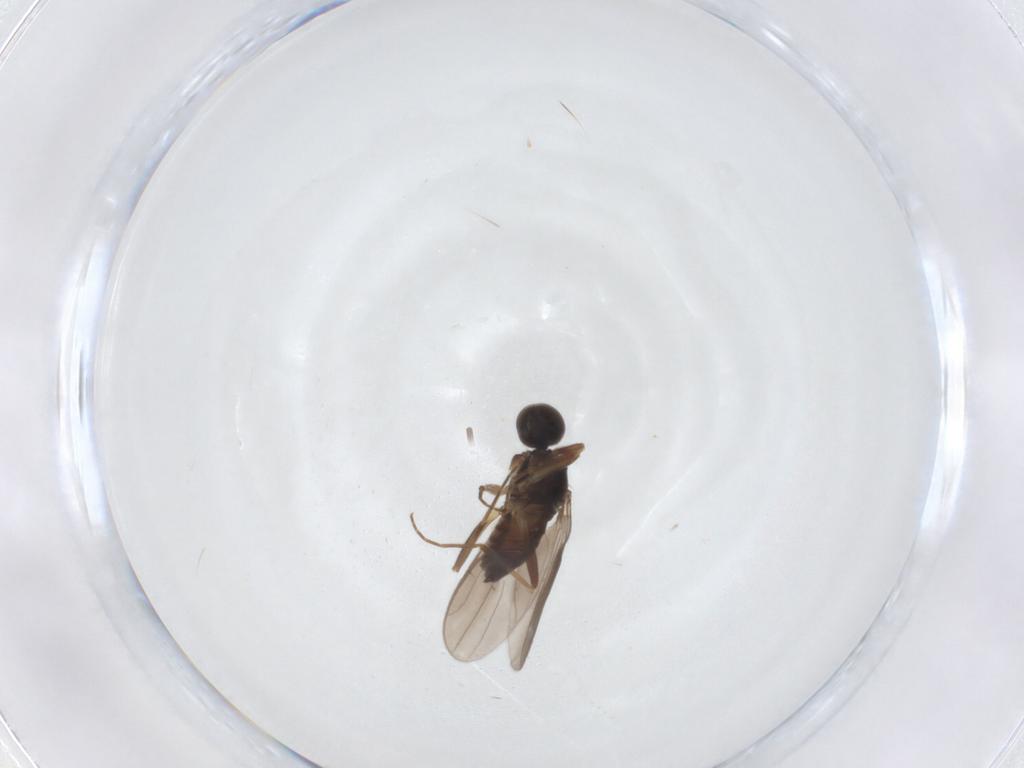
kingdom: Animalia
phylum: Arthropoda
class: Insecta
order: Diptera
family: Hybotidae
